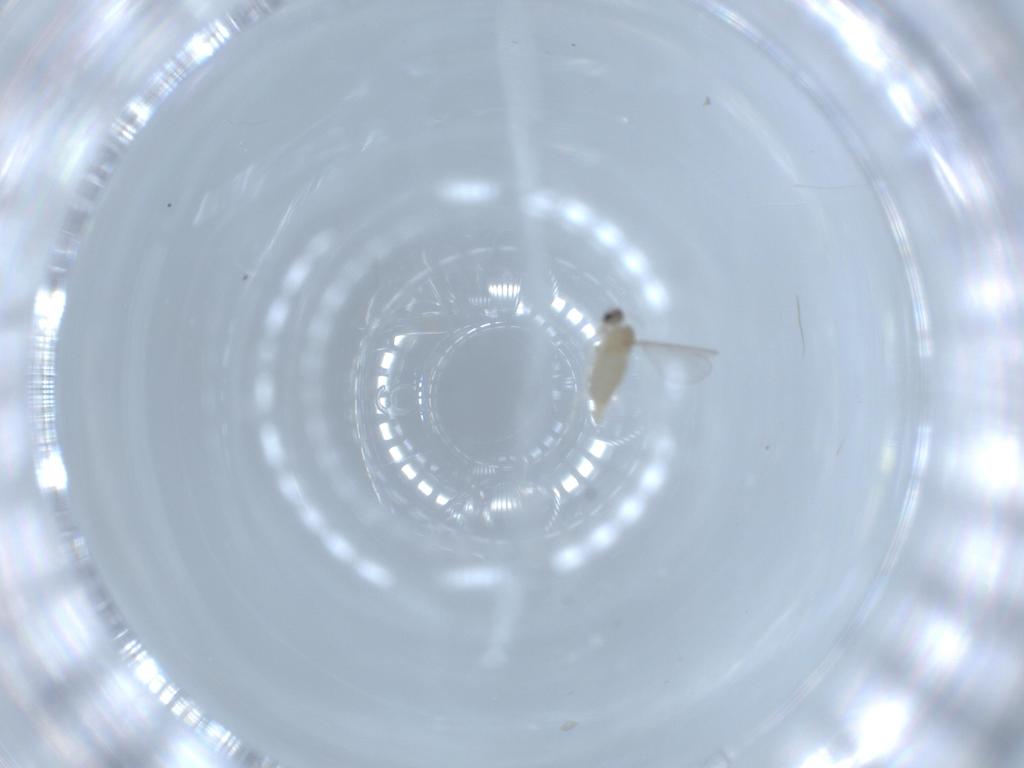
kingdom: Animalia
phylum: Arthropoda
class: Insecta
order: Diptera
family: Cecidomyiidae
